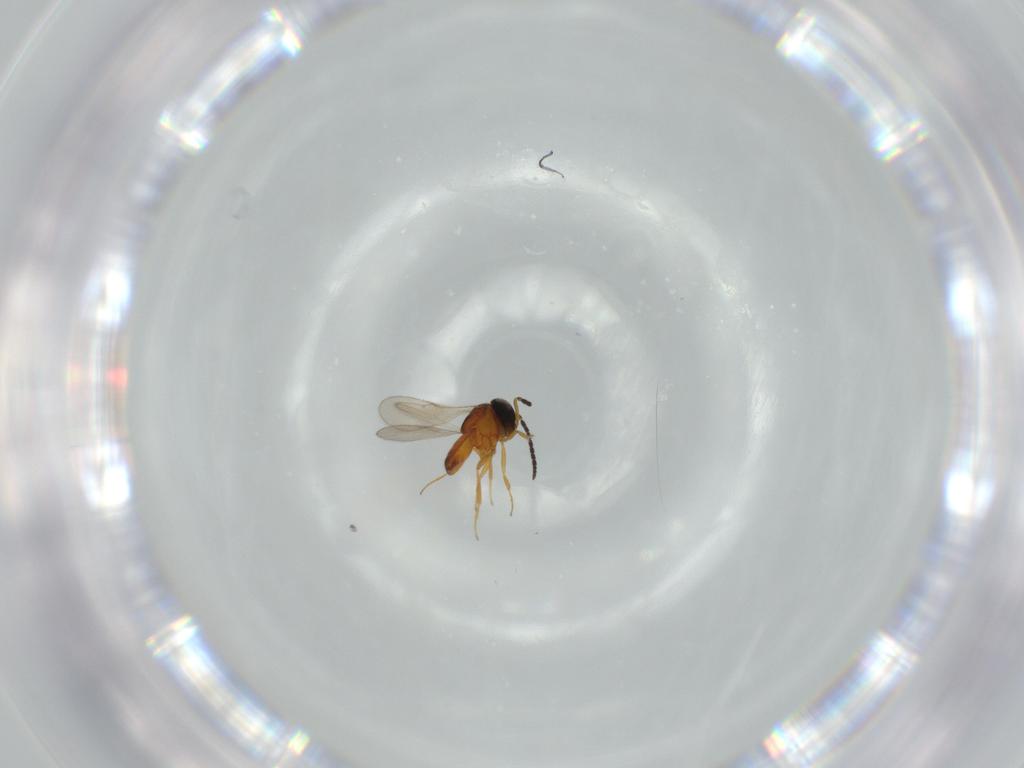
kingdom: Animalia
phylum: Arthropoda
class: Insecta
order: Hymenoptera
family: Scelionidae
